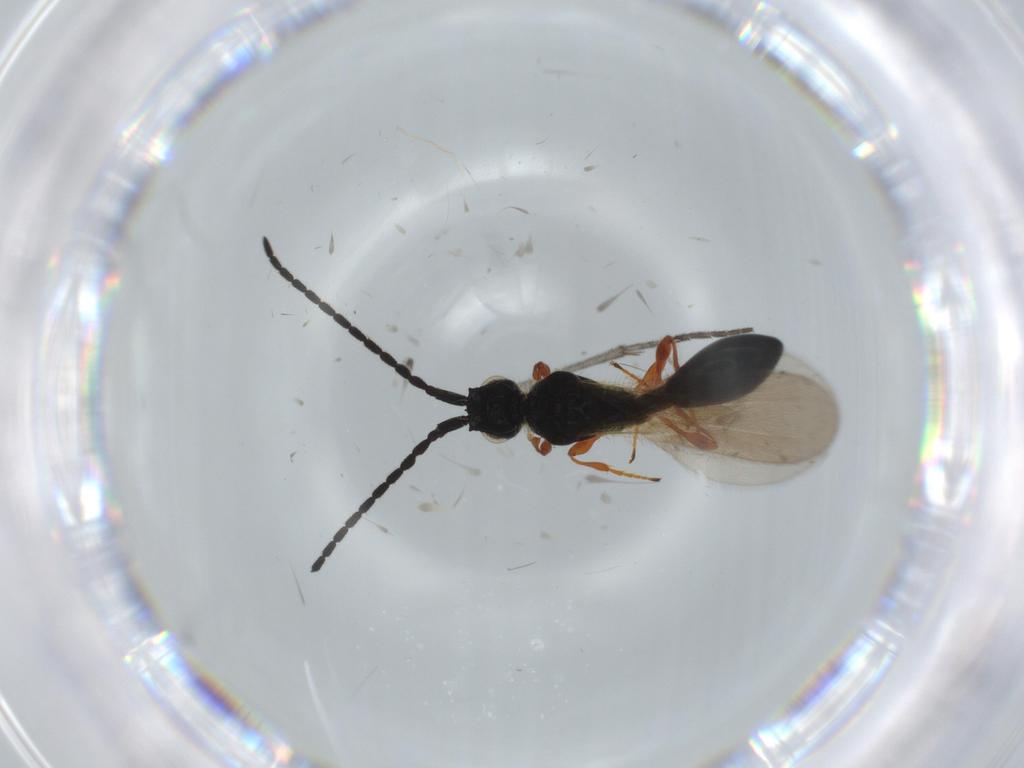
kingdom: Animalia
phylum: Arthropoda
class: Insecta
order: Hymenoptera
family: Diapriidae
